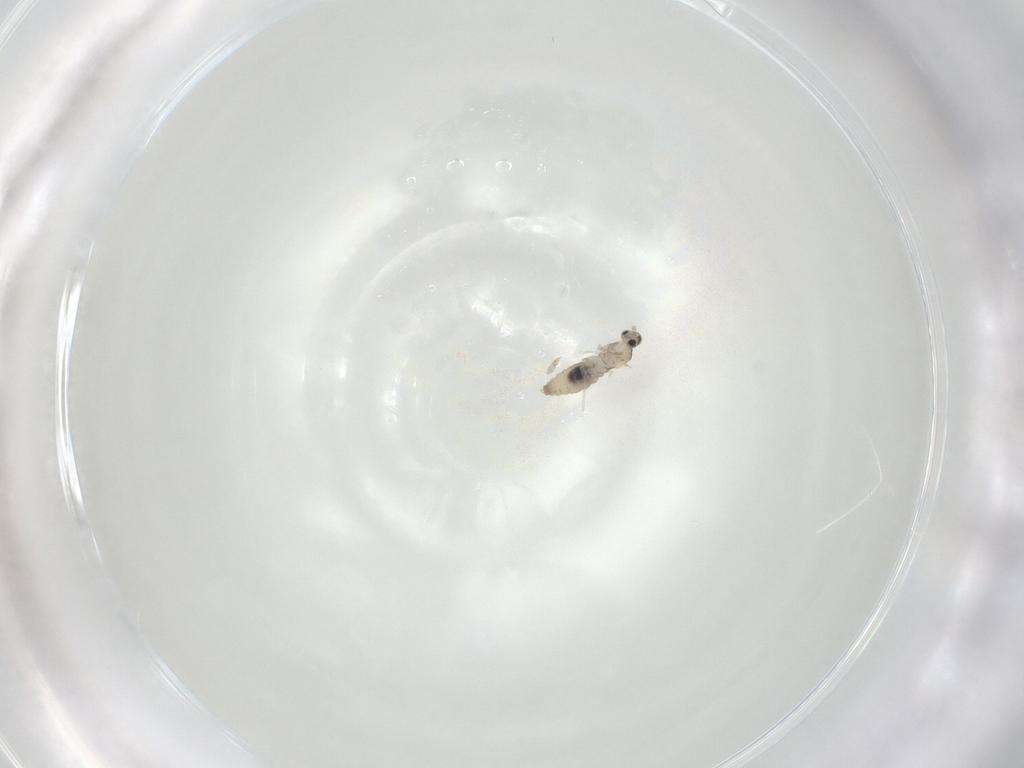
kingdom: Animalia
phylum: Arthropoda
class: Insecta
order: Diptera
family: Cecidomyiidae
